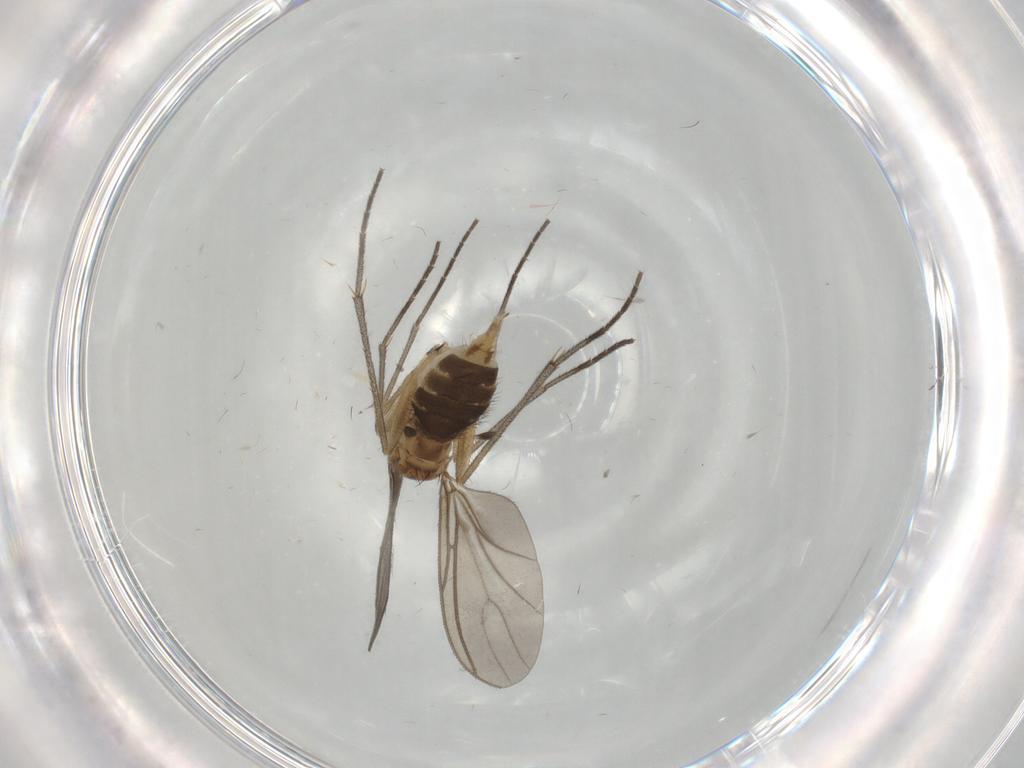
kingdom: Animalia
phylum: Arthropoda
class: Insecta
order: Diptera
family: Sciaridae
